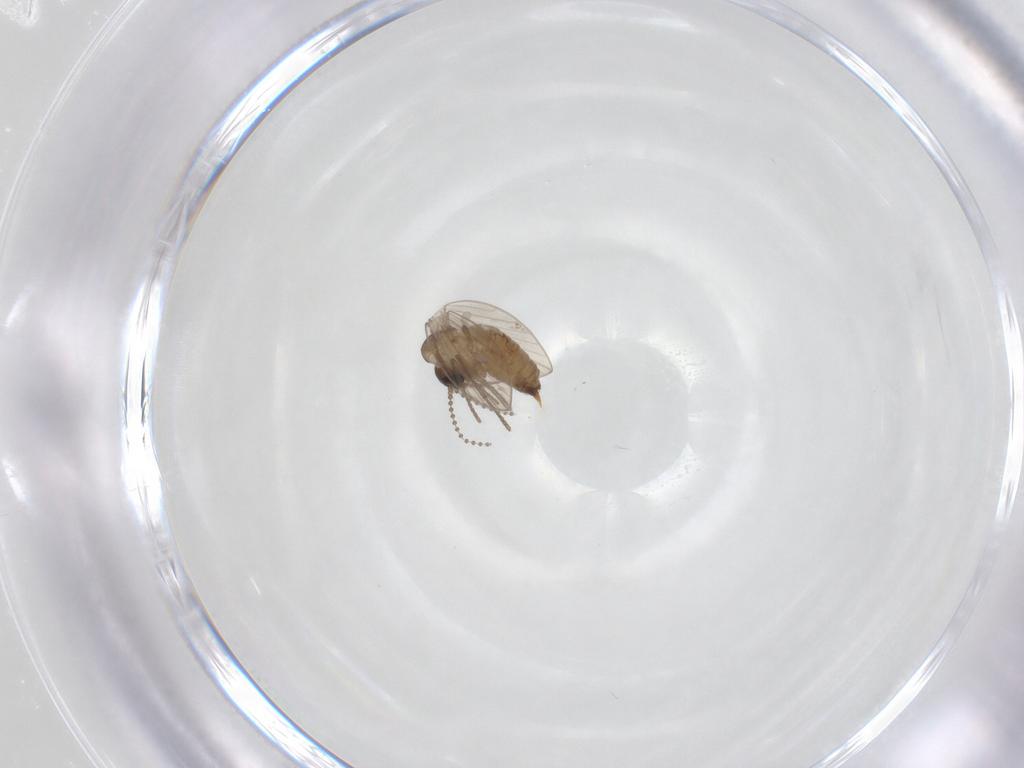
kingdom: Animalia
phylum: Arthropoda
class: Insecta
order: Diptera
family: Psychodidae
